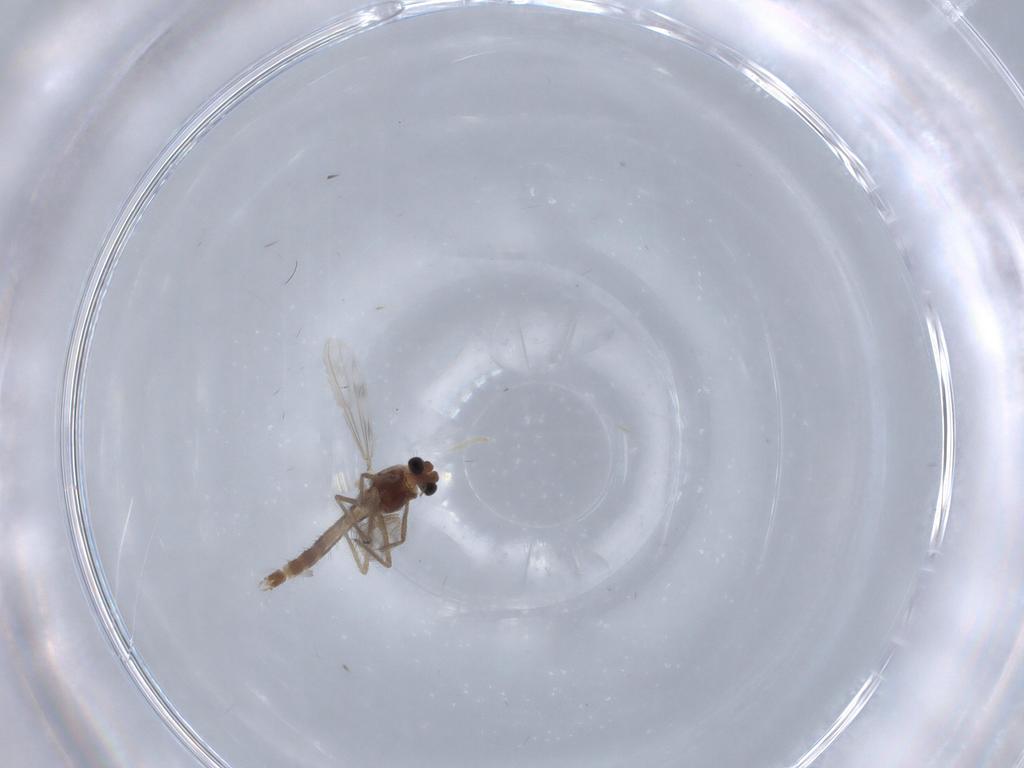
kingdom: Animalia
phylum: Arthropoda
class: Insecta
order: Diptera
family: Chironomidae
